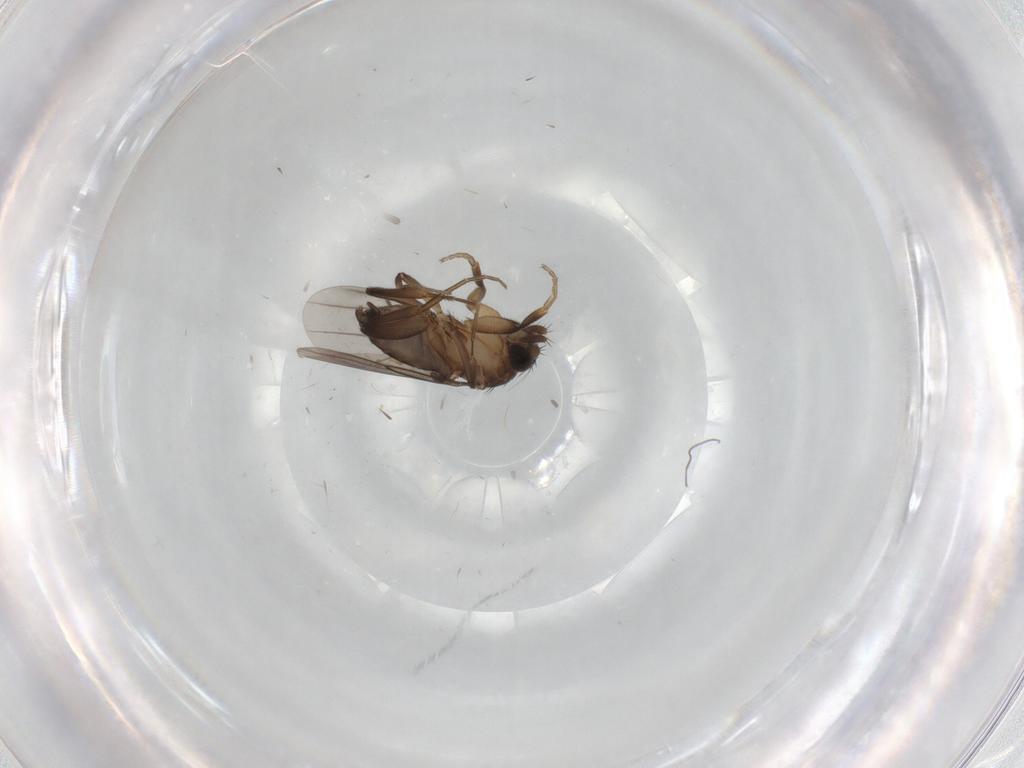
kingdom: Animalia
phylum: Arthropoda
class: Insecta
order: Diptera
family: Phoridae
